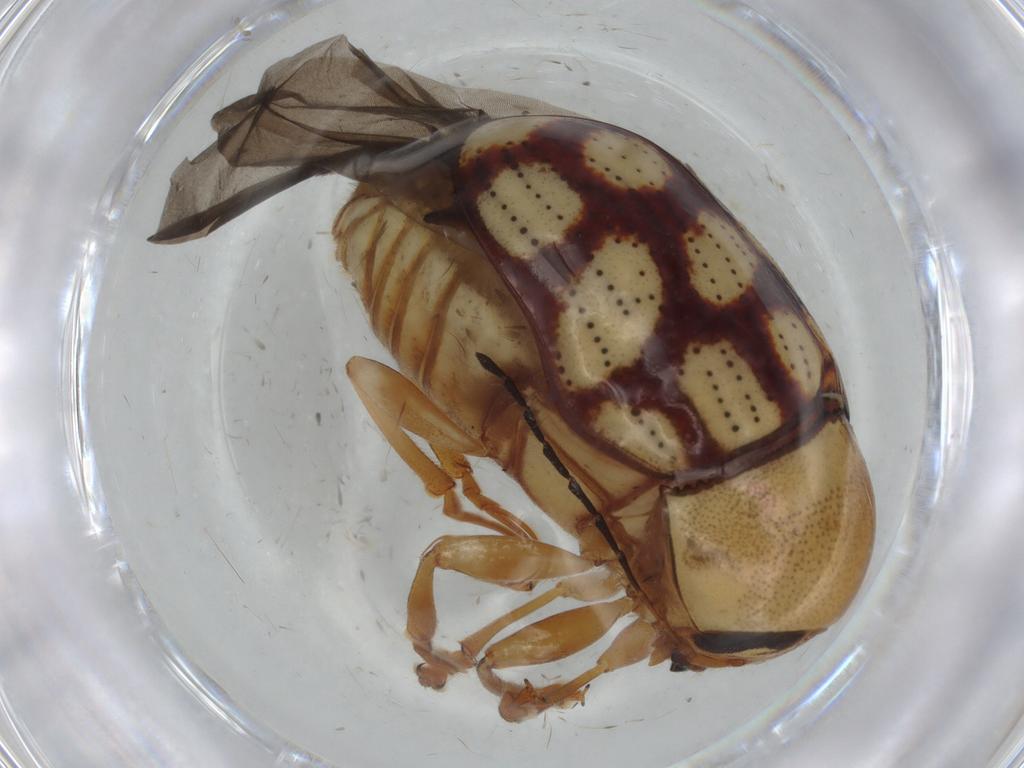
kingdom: Animalia
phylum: Arthropoda
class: Insecta
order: Coleoptera
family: Chrysomelidae
